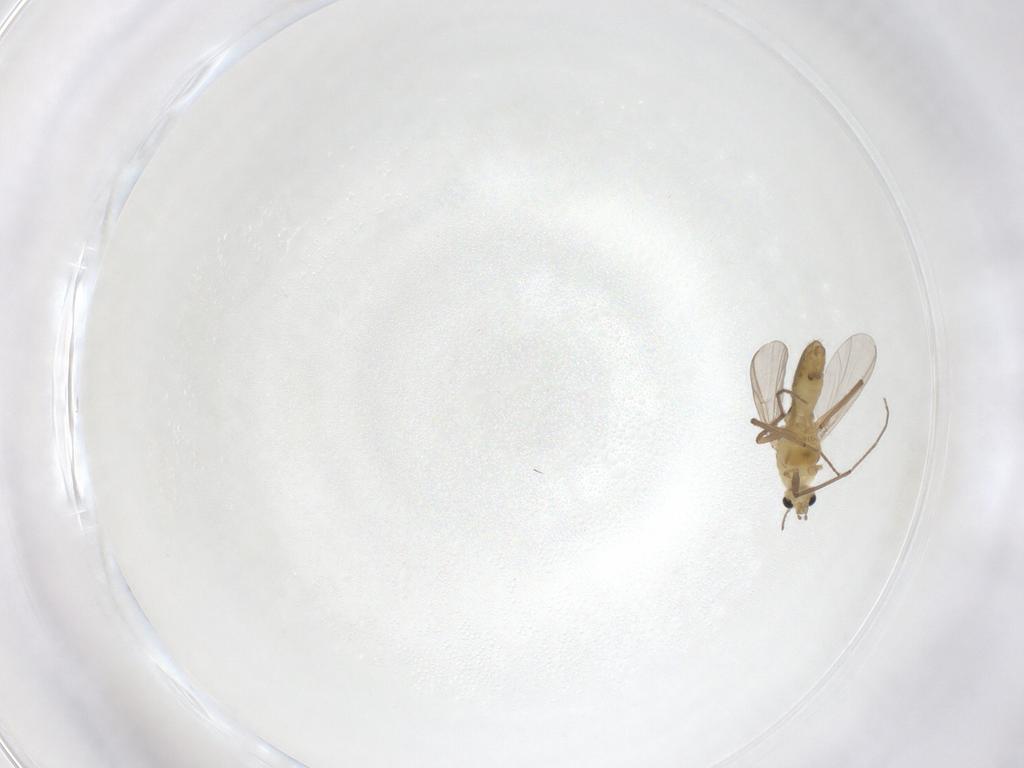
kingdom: Animalia
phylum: Arthropoda
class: Insecta
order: Diptera
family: Chironomidae
